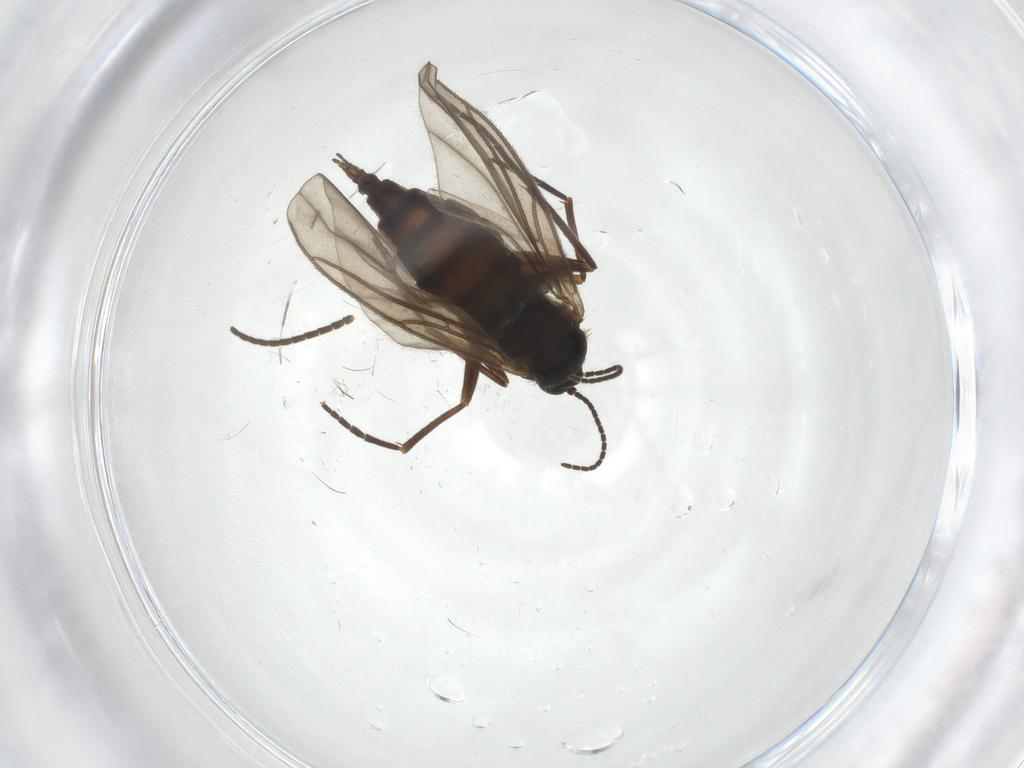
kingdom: Animalia
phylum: Arthropoda
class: Insecta
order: Diptera
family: Sciaridae
